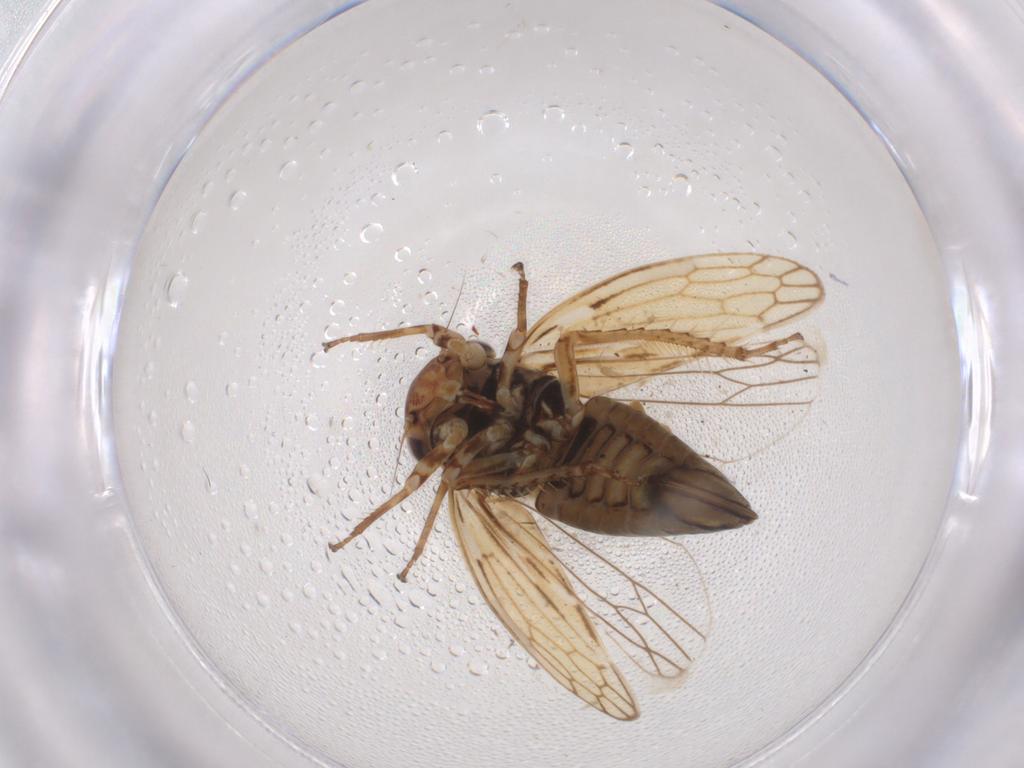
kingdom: Animalia
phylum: Arthropoda
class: Insecta
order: Hemiptera
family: Cicadellidae
